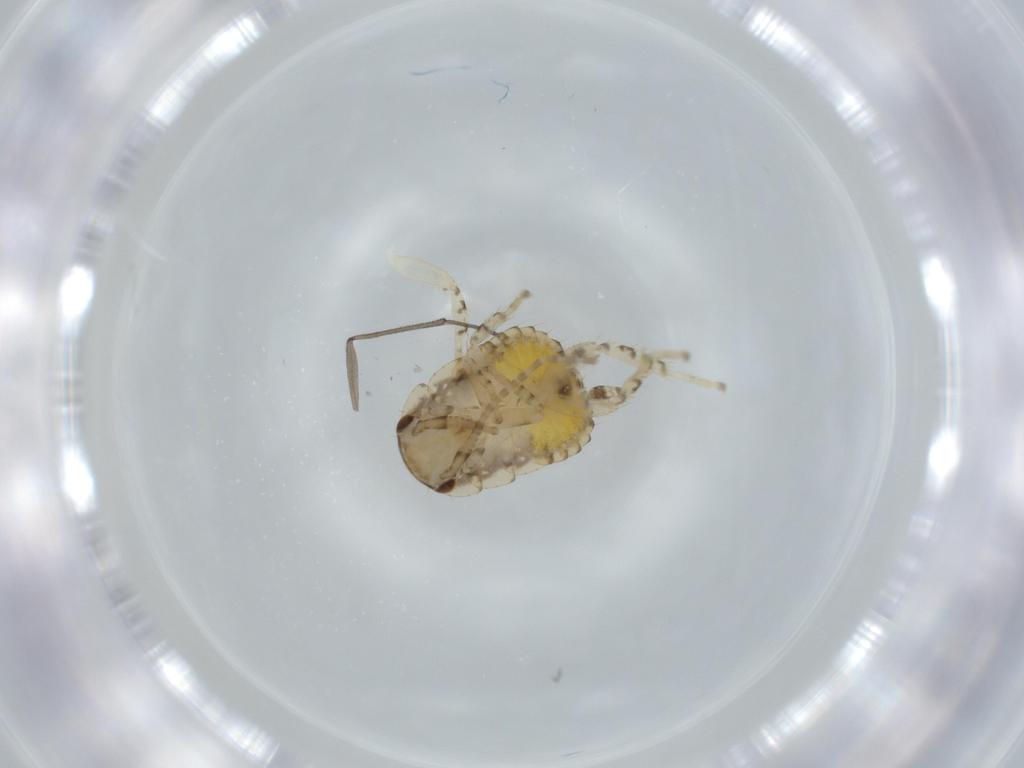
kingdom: Animalia
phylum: Arthropoda
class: Insecta
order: Blattodea
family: Ectobiidae
